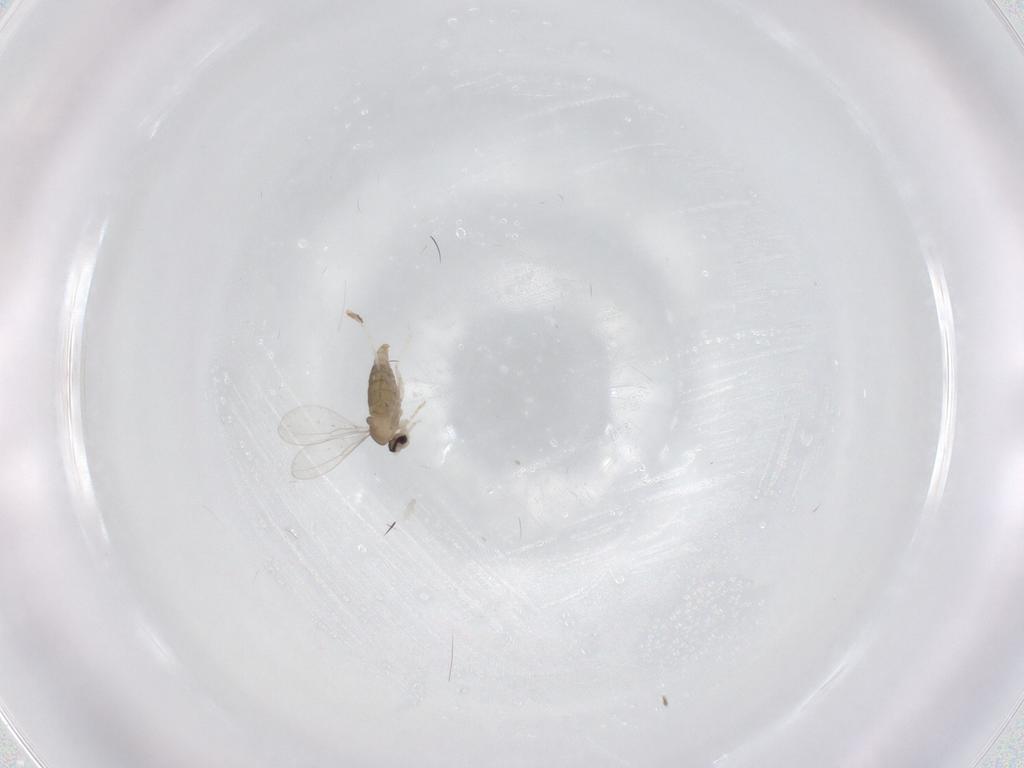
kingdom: Animalia
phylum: Arthropoda
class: Insecta
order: Diptera
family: Cecidomyiidae
